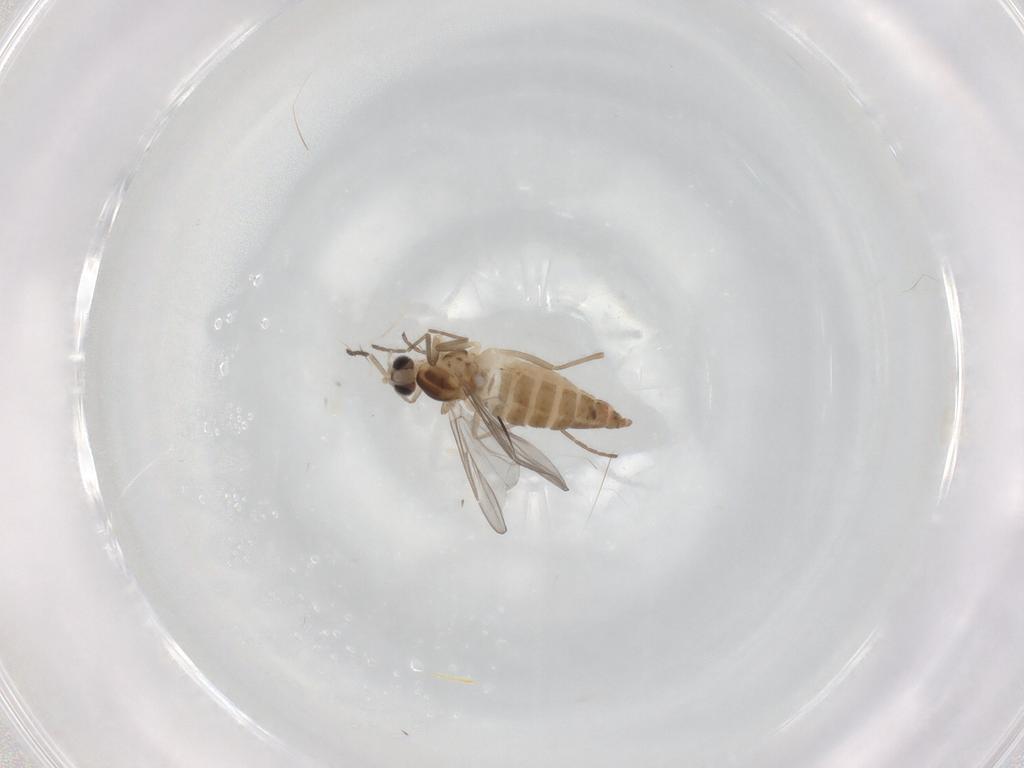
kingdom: Animalia
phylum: Arthropoda
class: Insecta
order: Diptera
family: Cecidomyiidae
